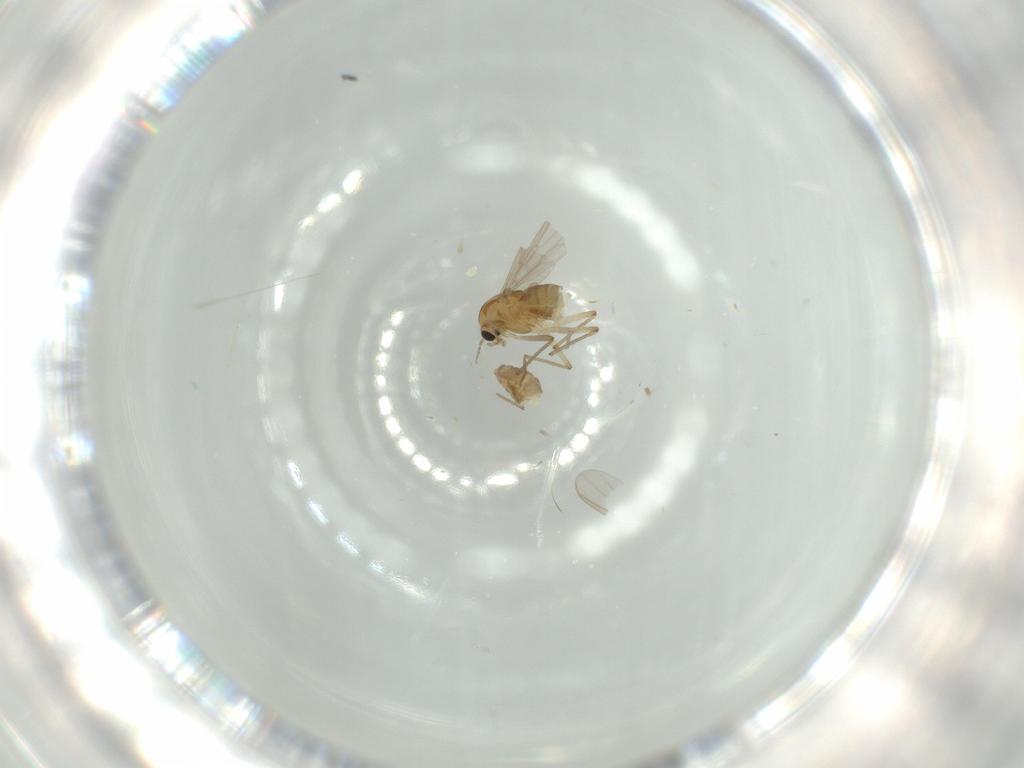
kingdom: Animalia
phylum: Arthropoda
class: Insecta
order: Diptera
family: Chironomidae
